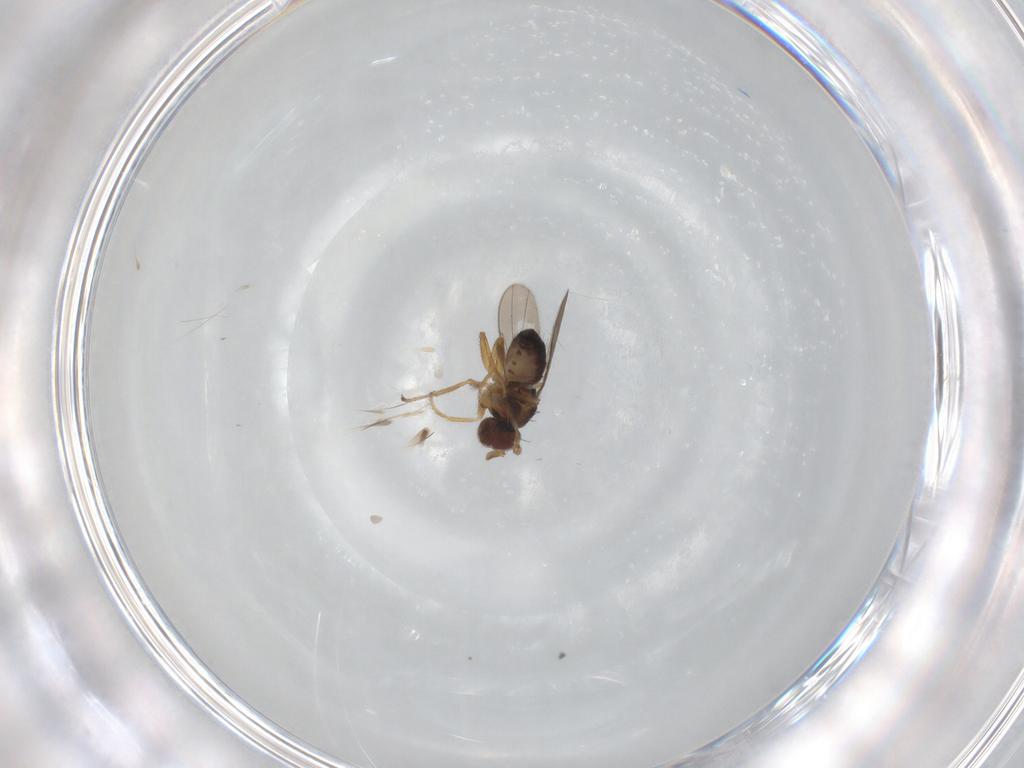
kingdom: Animalia
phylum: Arthropoda
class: Insecta
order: Diptera
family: Ephydridae
